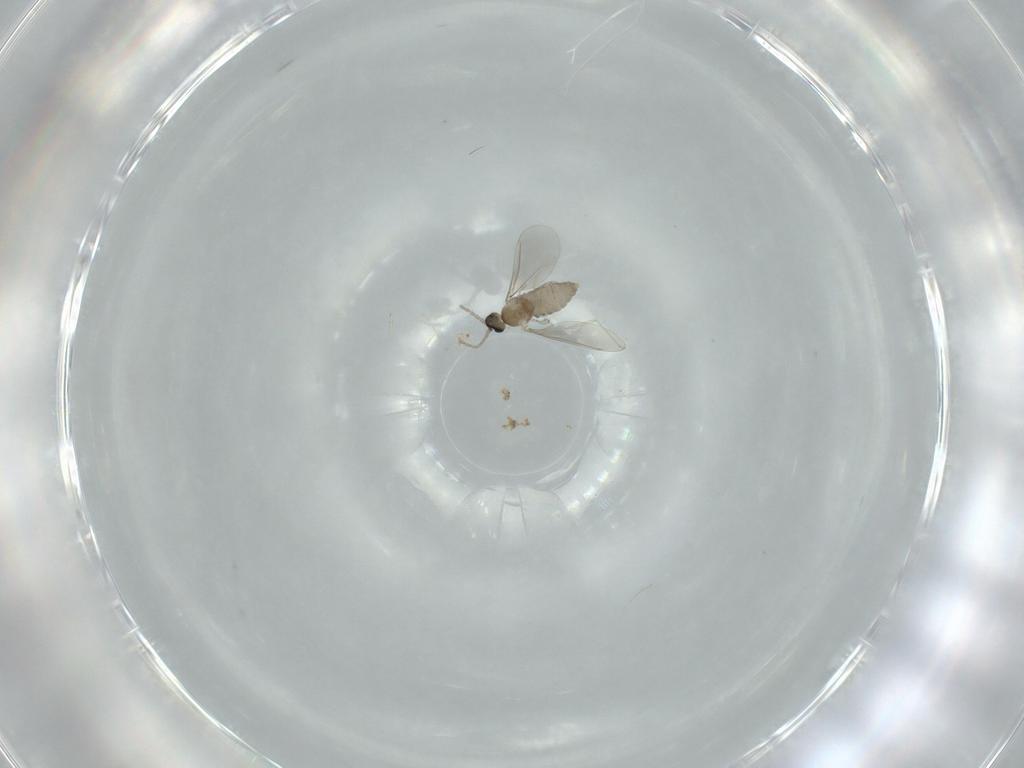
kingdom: Animalia
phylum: Arthropoda
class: Insecta
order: Diptera
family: Cecidomyiidae
